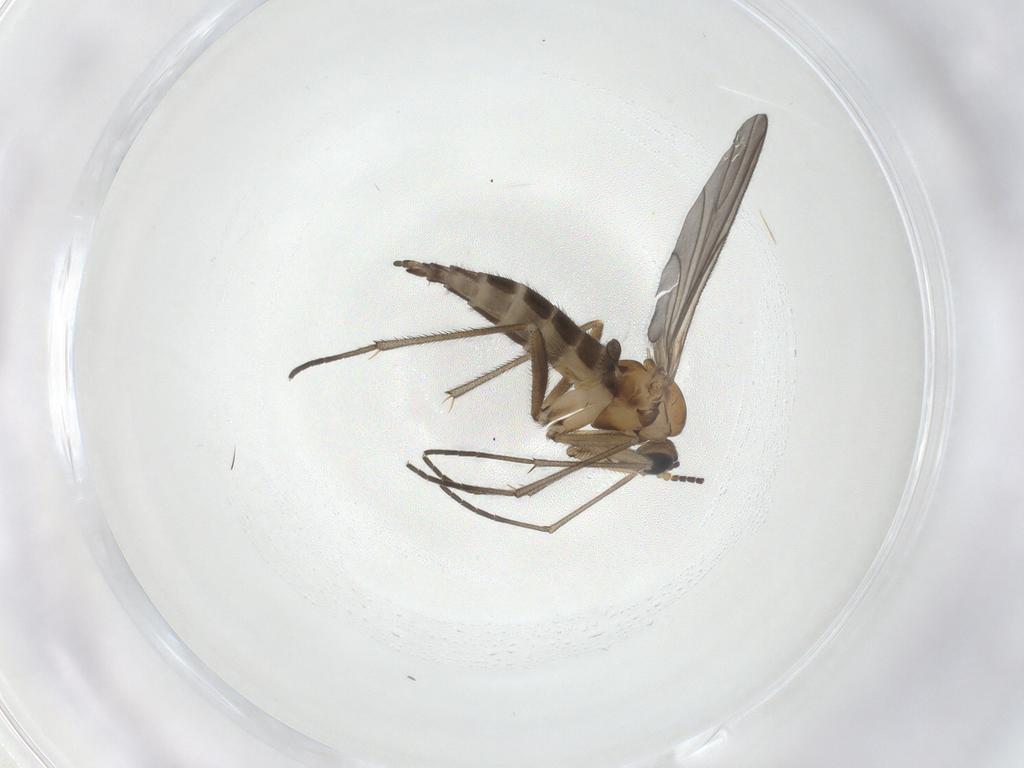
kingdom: Animalia
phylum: Arthropoda
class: Insecta
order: Diptera
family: Sciaridae
